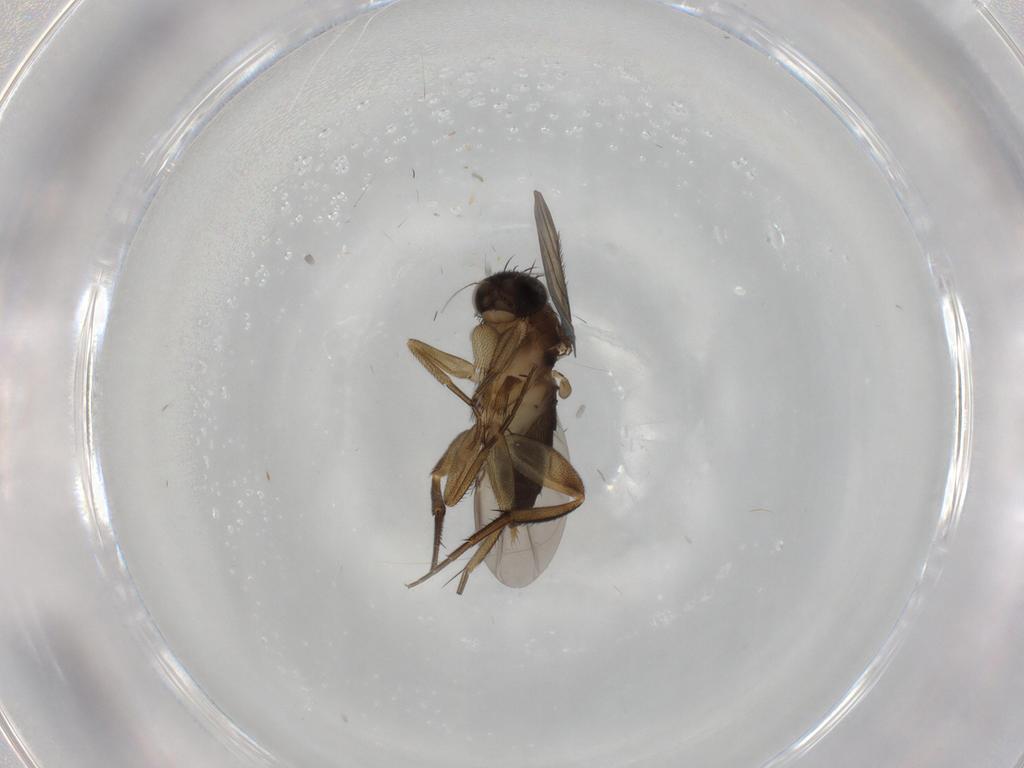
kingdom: Animalia
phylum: Arthropoda
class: Insecta
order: Diptera
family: Phoridae
